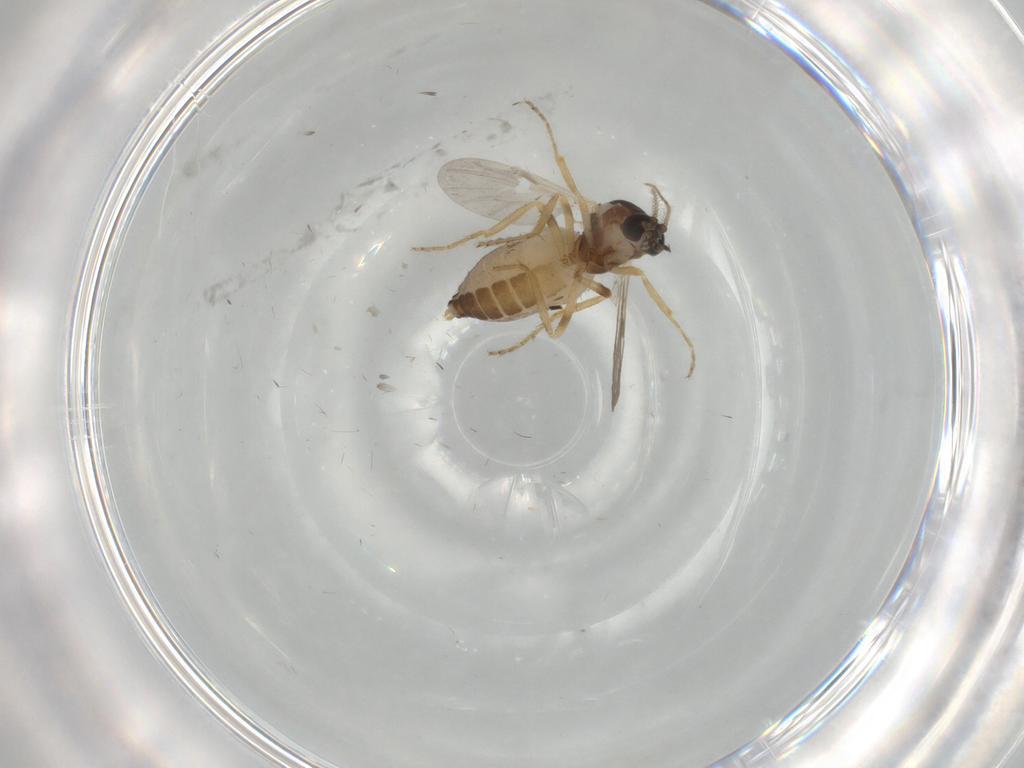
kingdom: Animalia
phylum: Arthropoda
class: Insecta
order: Diptera
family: Ceratopogonidae
